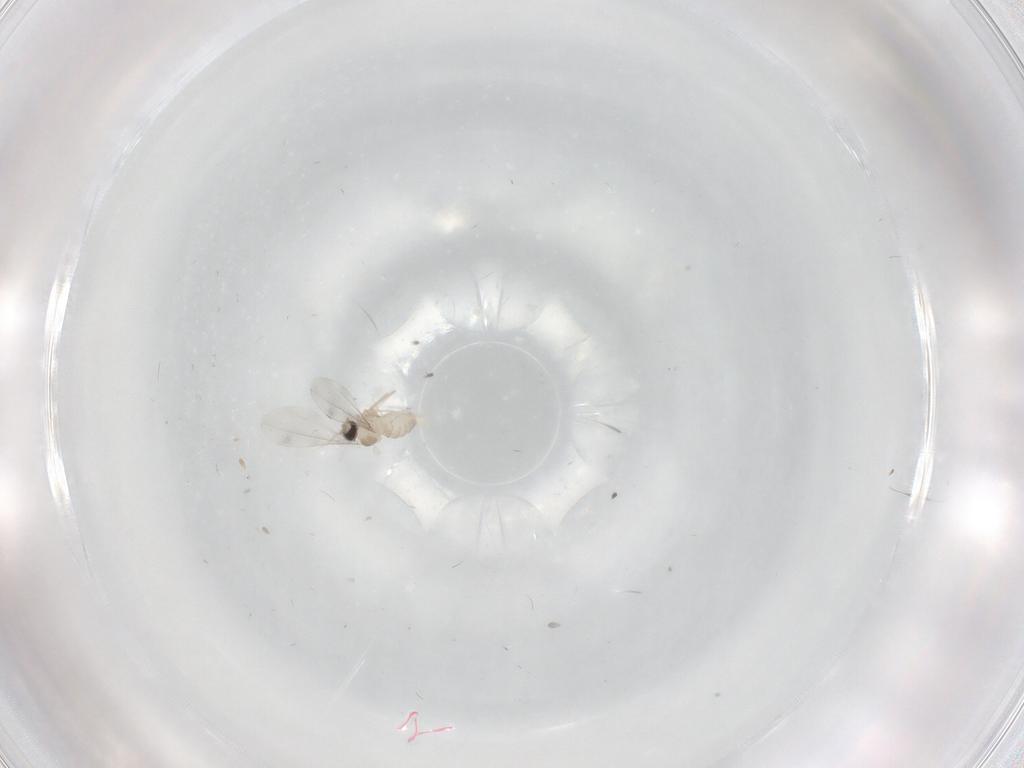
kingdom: Animalia
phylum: Arthropoda
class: Insecta
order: Diptera
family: Cecidomyiidae
